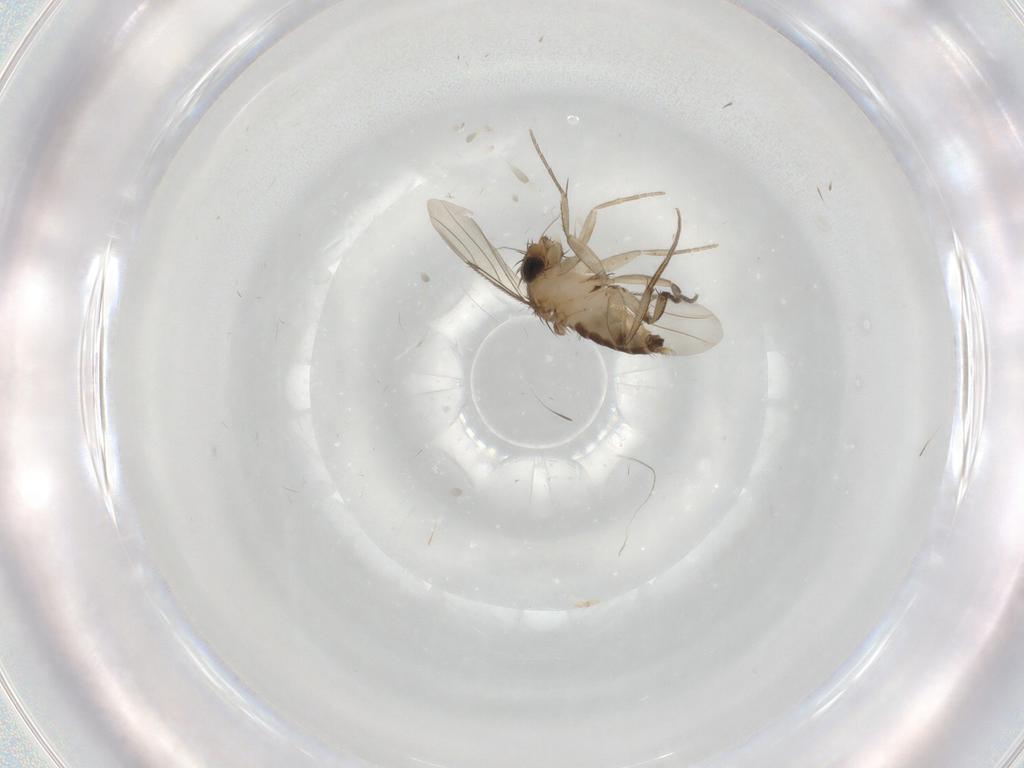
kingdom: Animalia
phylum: Arthropoda
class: Insecta
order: Diptera
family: Phoridae
